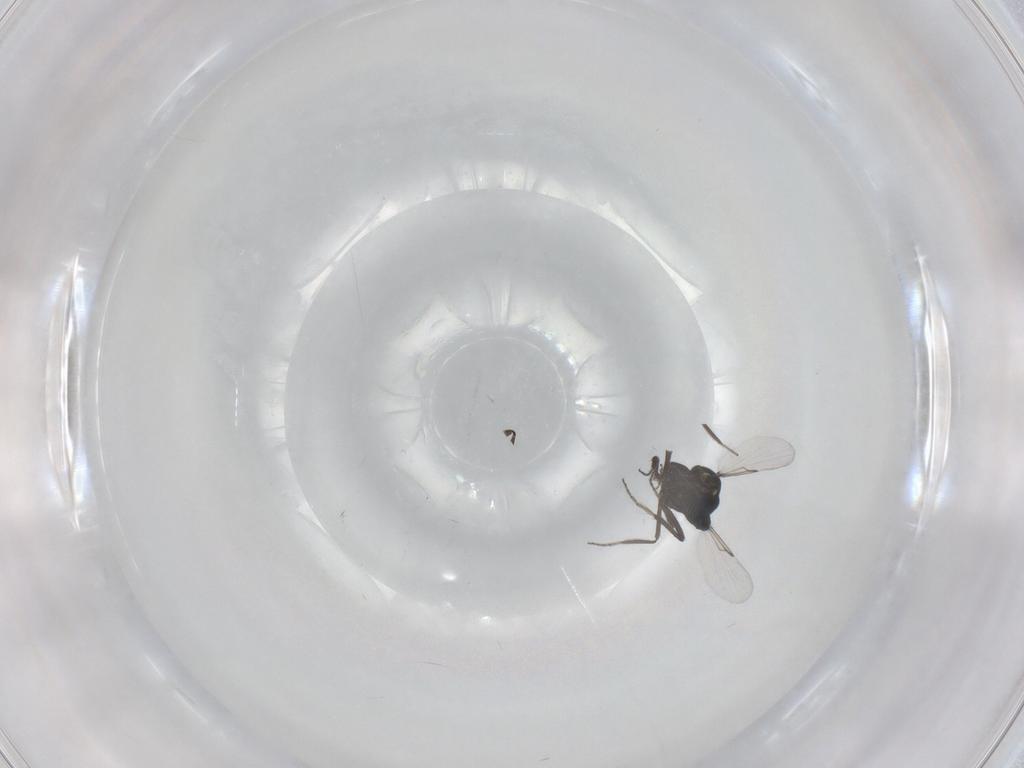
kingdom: Animalia
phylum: Arthropoda
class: Insecta
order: Diptera
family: Ceratopogonidae
